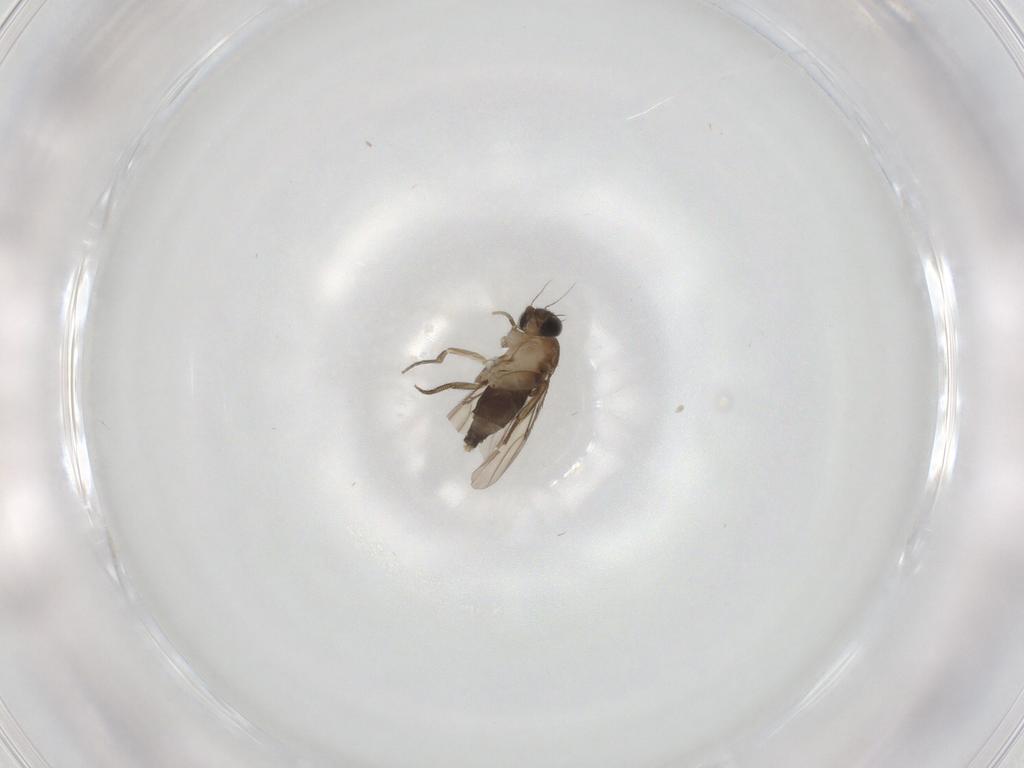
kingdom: Animalia
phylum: Arthropoda
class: Insecta
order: Diptera
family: Phoridae
